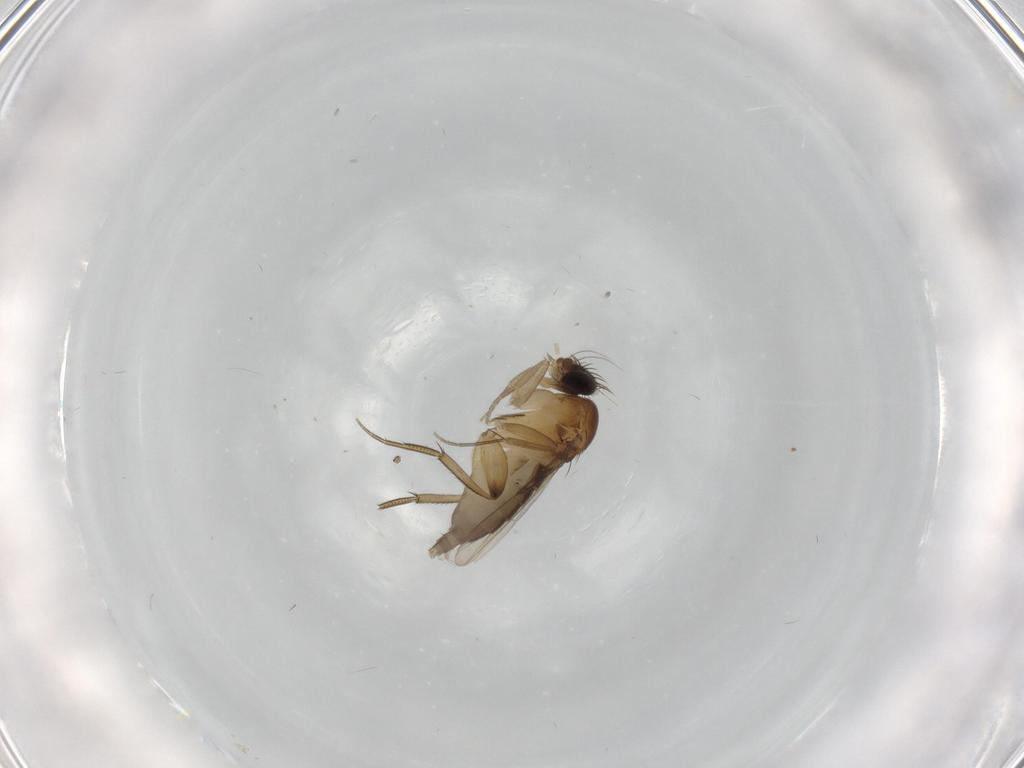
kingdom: Animalia
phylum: Arthropoda
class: Insecta
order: Diptera
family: Phoridae
